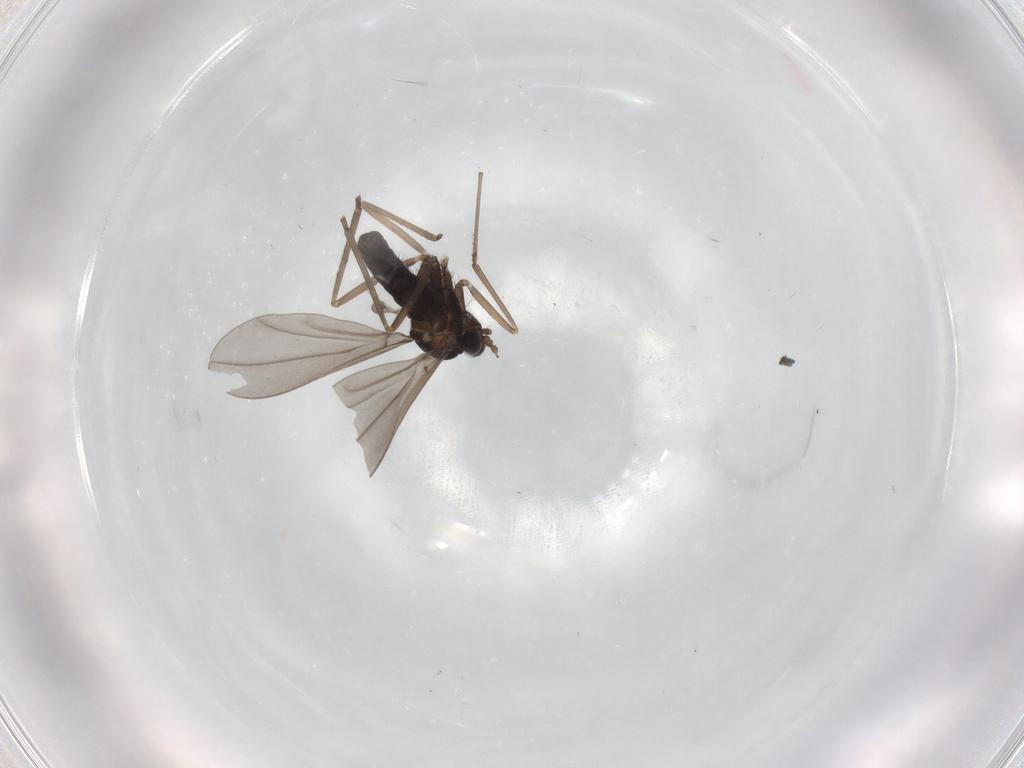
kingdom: Animalia
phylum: Arthropoda
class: Insecta
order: Diptera
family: Cecidomyiidae
